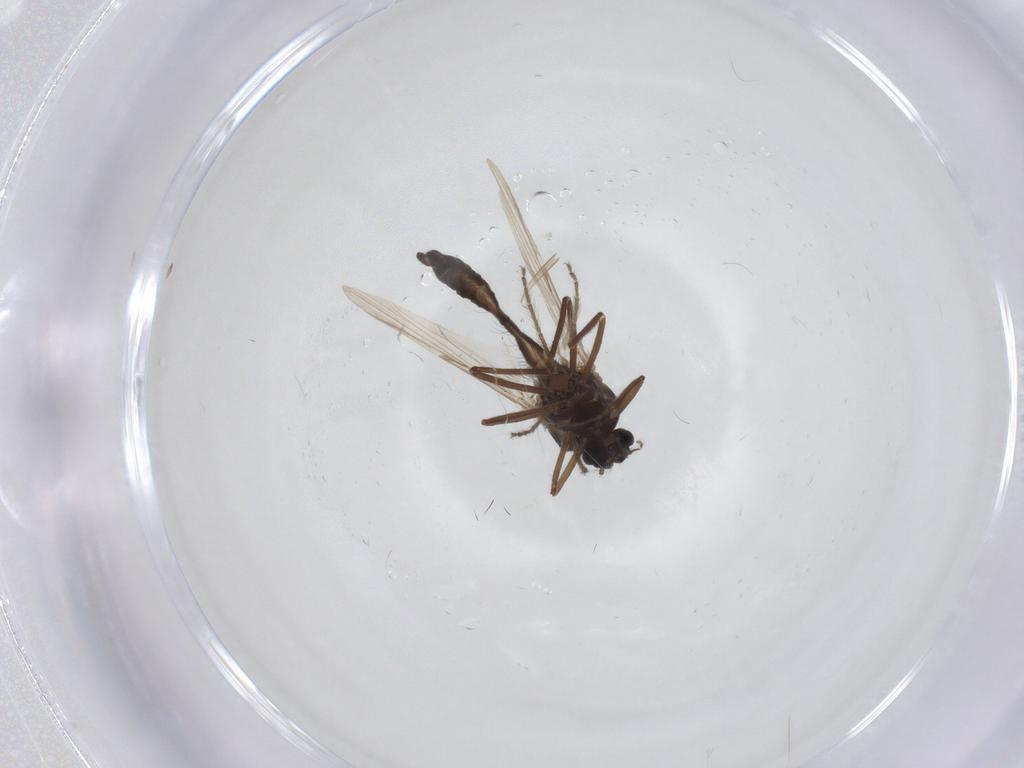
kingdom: Animalia
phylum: Arthropoda
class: Insecta
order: Diptera
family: Ceratopogonidae
